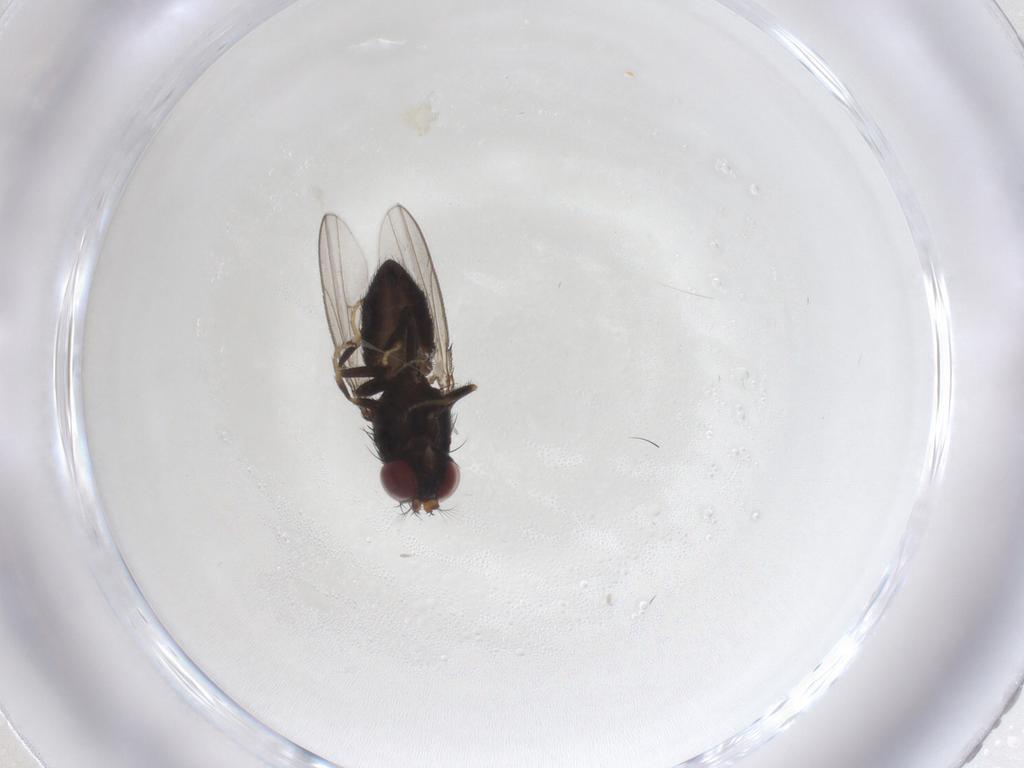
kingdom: Animalia
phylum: Arthropoda
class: Insecta
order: Diptera
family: Ephydridae
